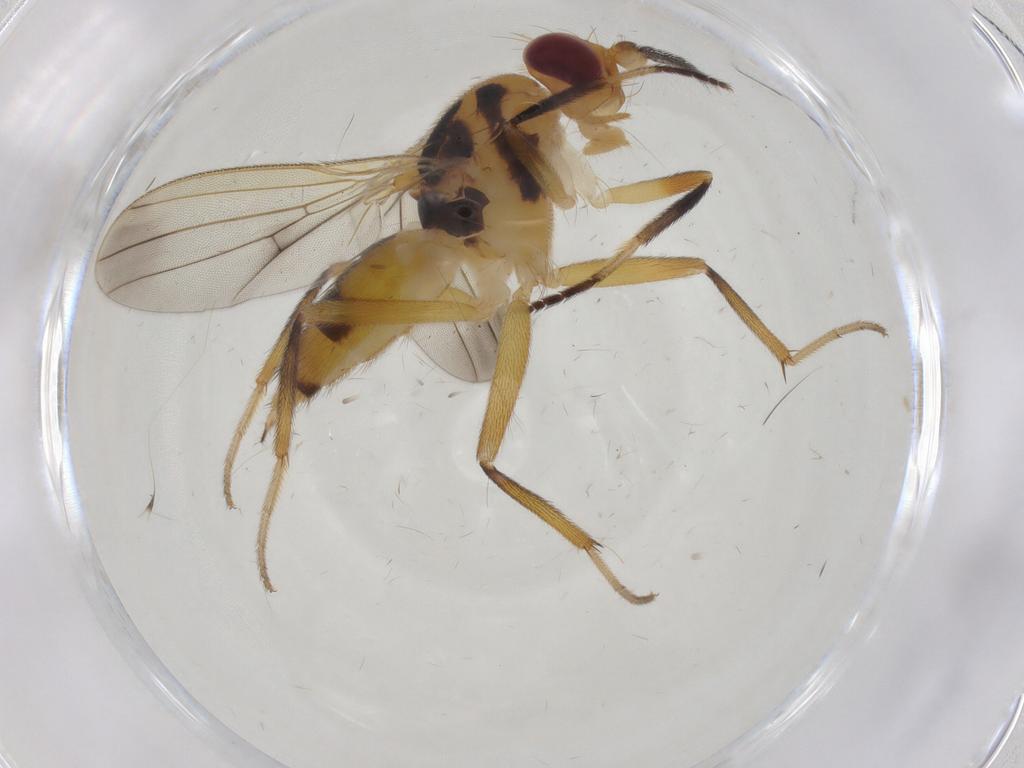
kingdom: Animalia
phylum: Arthropoda
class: Insecta
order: Diptera
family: Clusiidae
